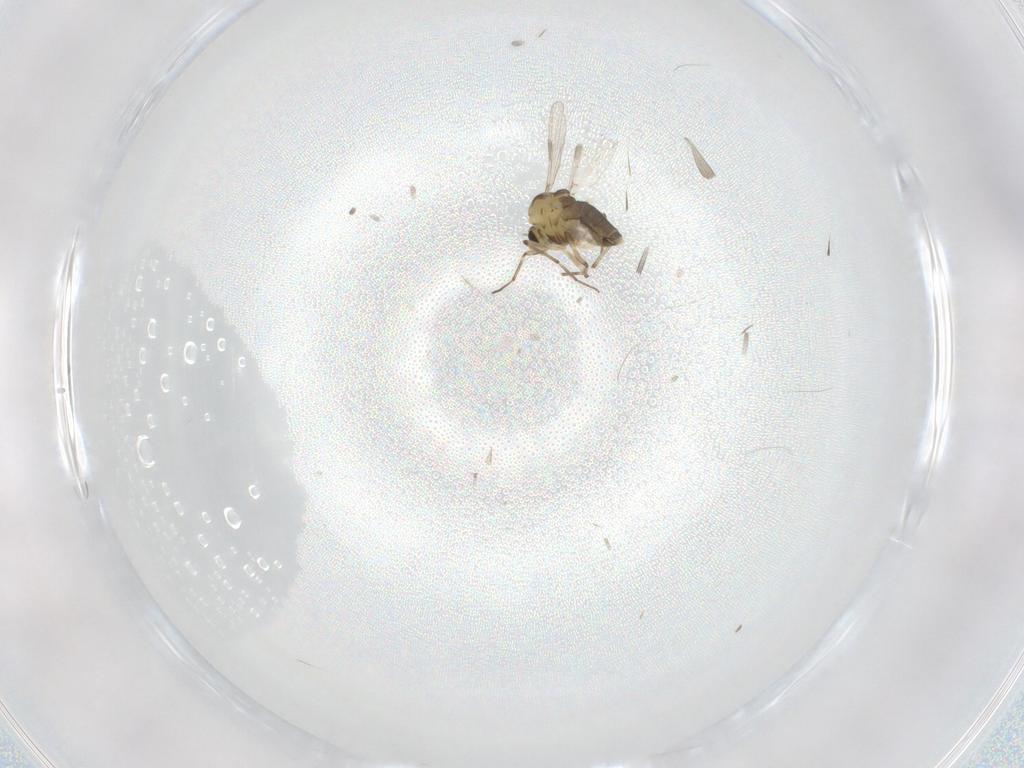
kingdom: Animalia
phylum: Arthropoda
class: Insecta
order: Diptera
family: Chironomidae
